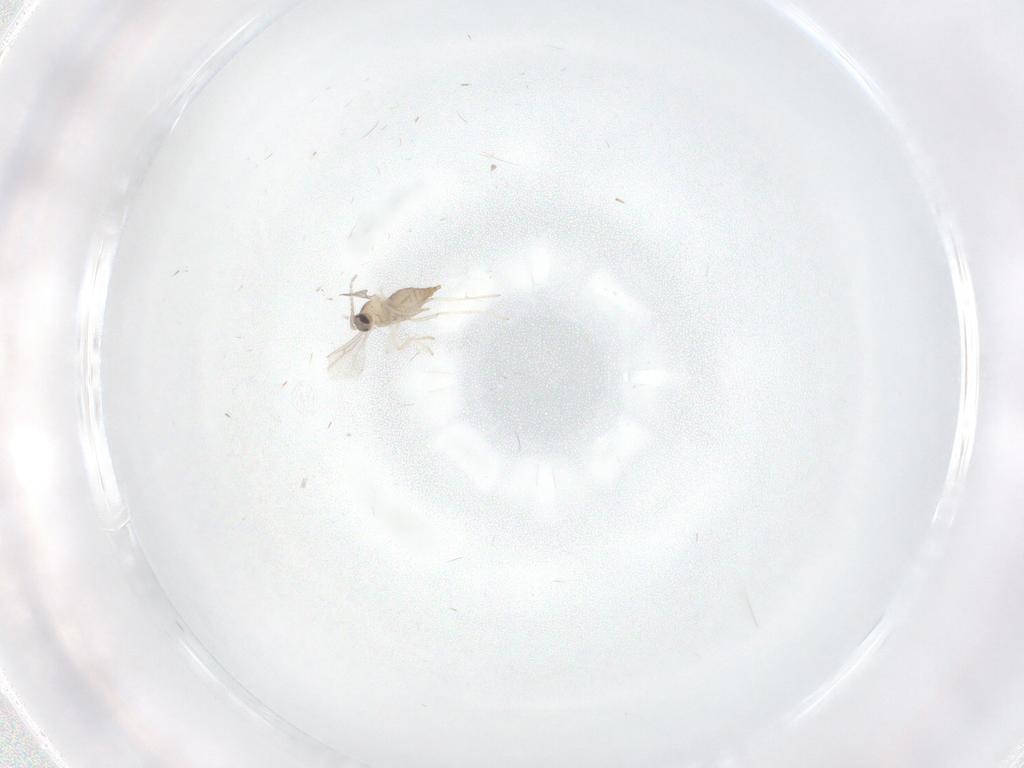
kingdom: Animalia
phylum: Arthropoda
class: Insecta
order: Diptera
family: Cecidomyiidae
